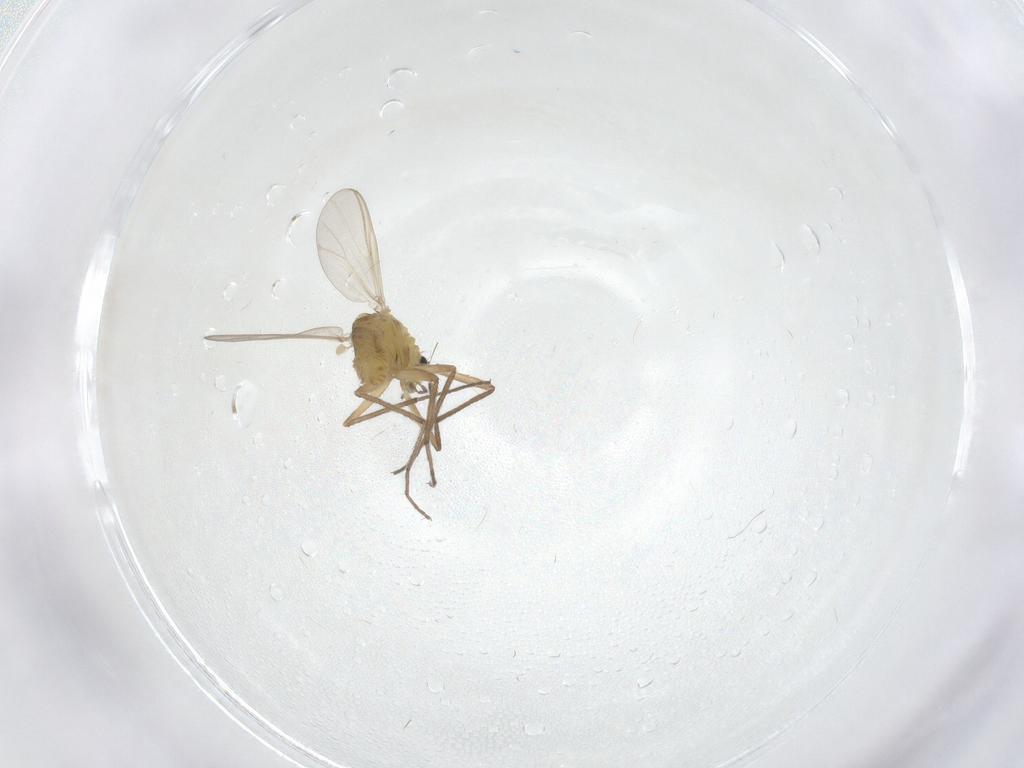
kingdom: Animalia
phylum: Arthropoda
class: Insecta
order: Diptera
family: Chironomidae
